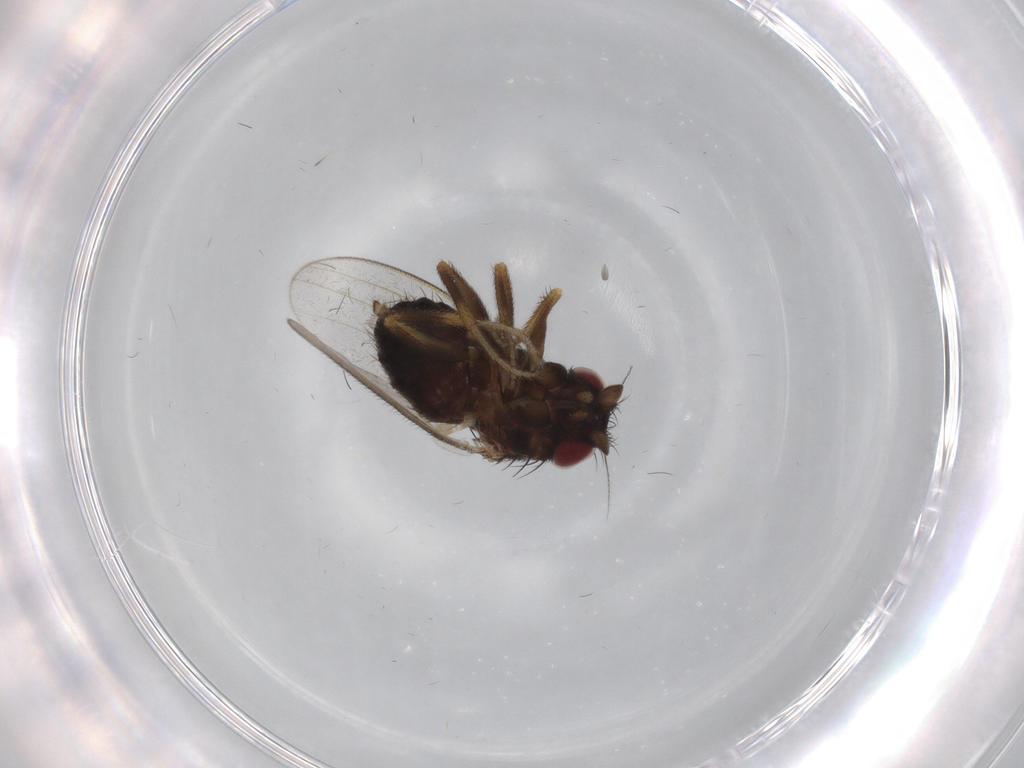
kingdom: Animalia
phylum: Arthropoda
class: Insecta
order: Diptera
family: Milichiidae
